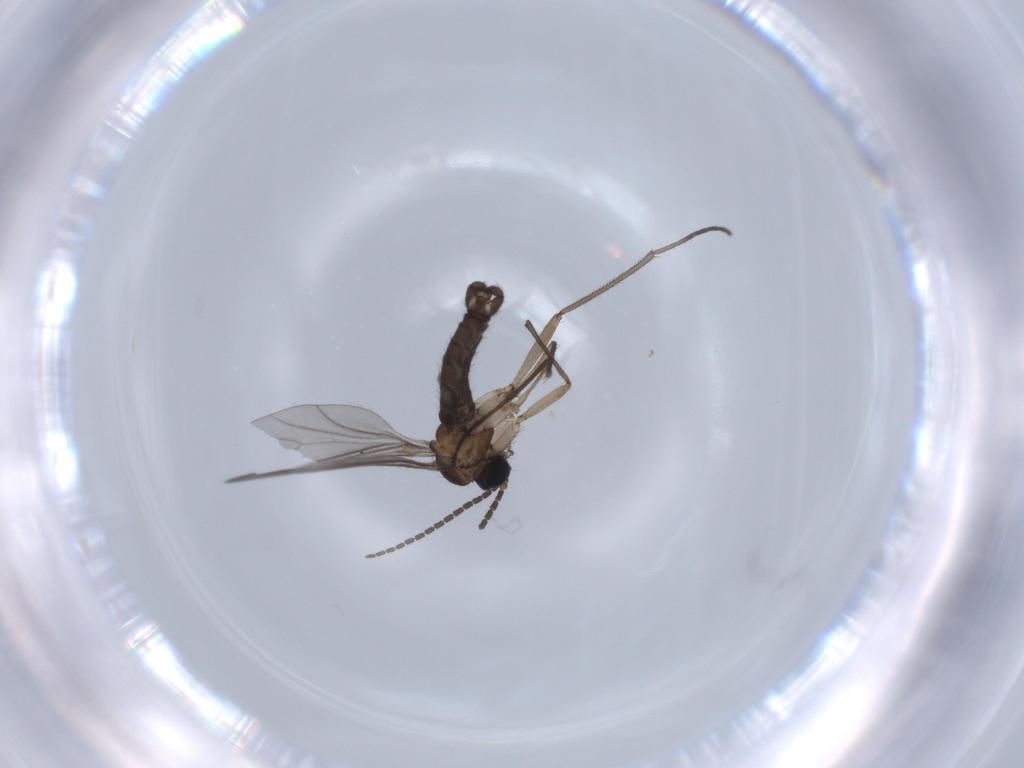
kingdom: Animalia
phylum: Arthropoda
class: Insecta
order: Diptera
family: Sciaridae
